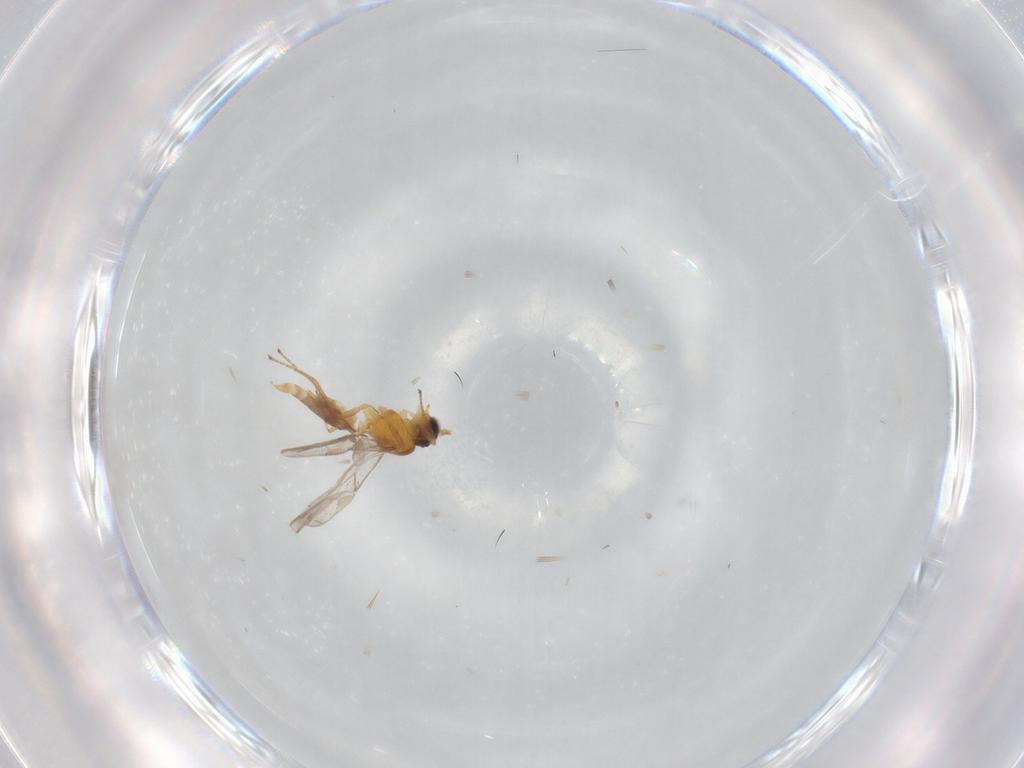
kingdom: Animalia
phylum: Arthropoda
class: Insecta
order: Hymenoptera
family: Braconidae
